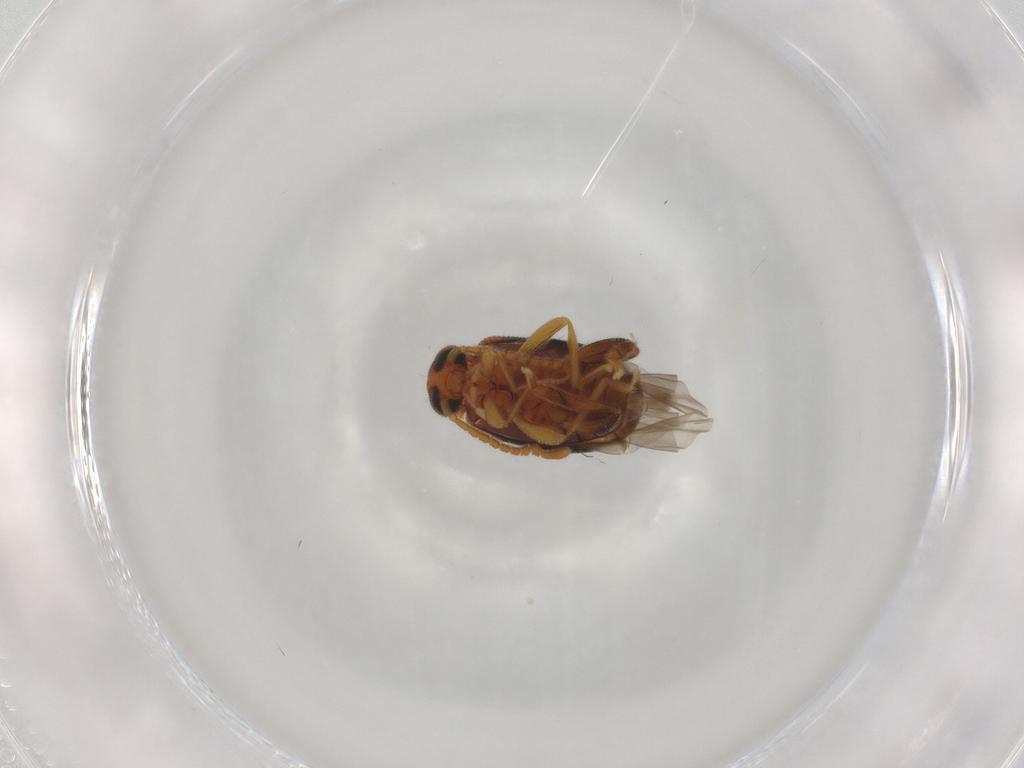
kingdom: Animalia
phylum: Arthropoda
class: Insecta
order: Coleoptera
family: Aderidae
